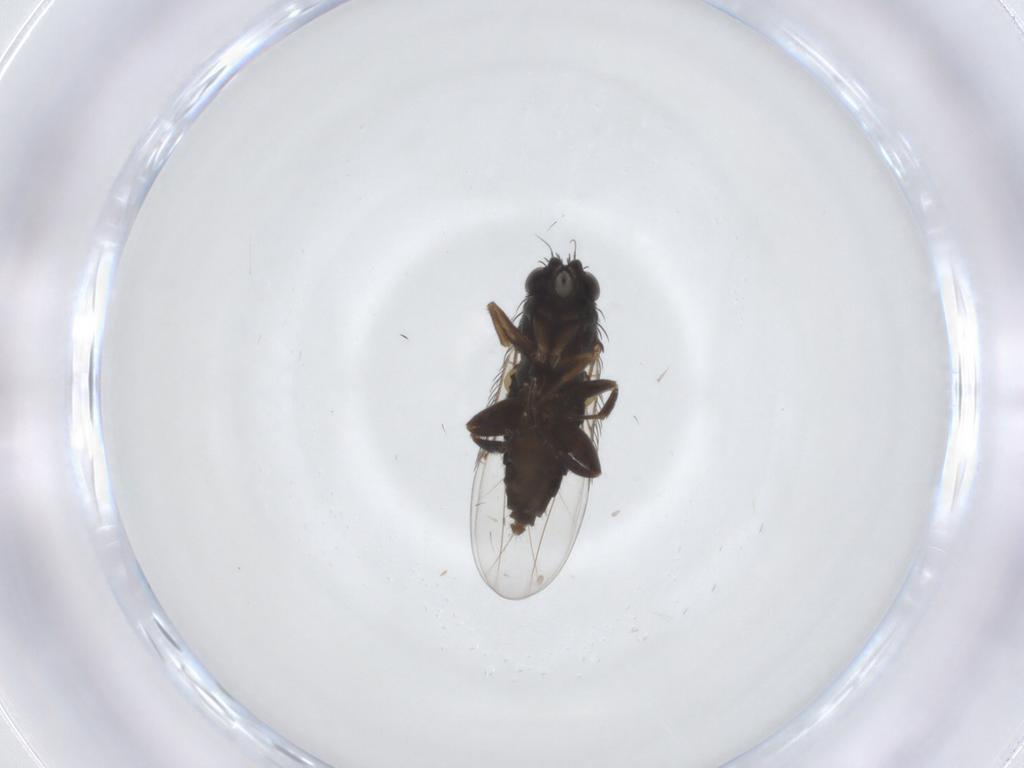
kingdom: Animalia
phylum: Arthropoda
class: Insecta
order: Diptera
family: Phoridae
